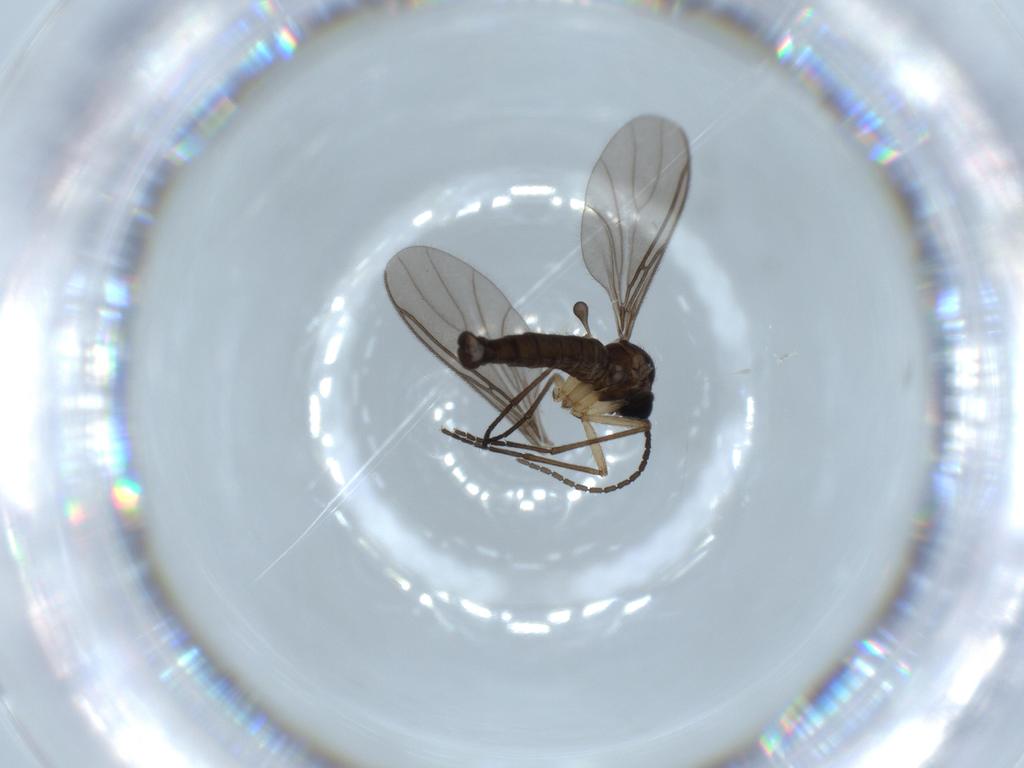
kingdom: Animalia
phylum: Arthropoda
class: Insecta
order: Diptera
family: Sciaridae
